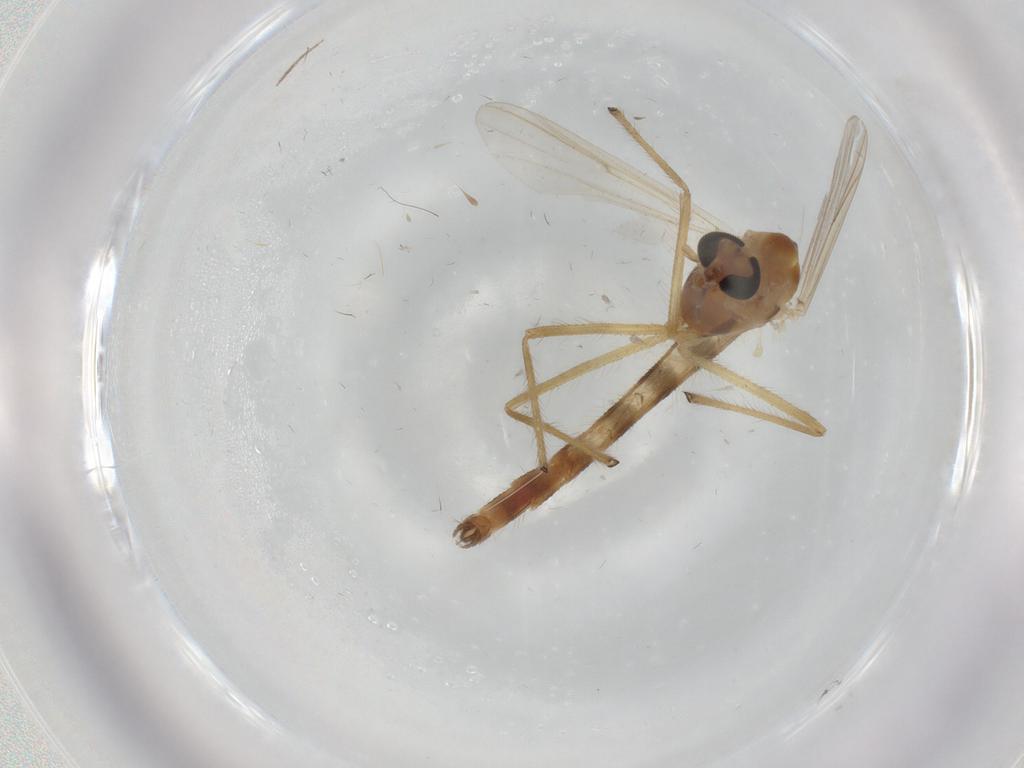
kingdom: Animalia
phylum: Arthropoda
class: Insecta
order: Diptera
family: Chironomidae
